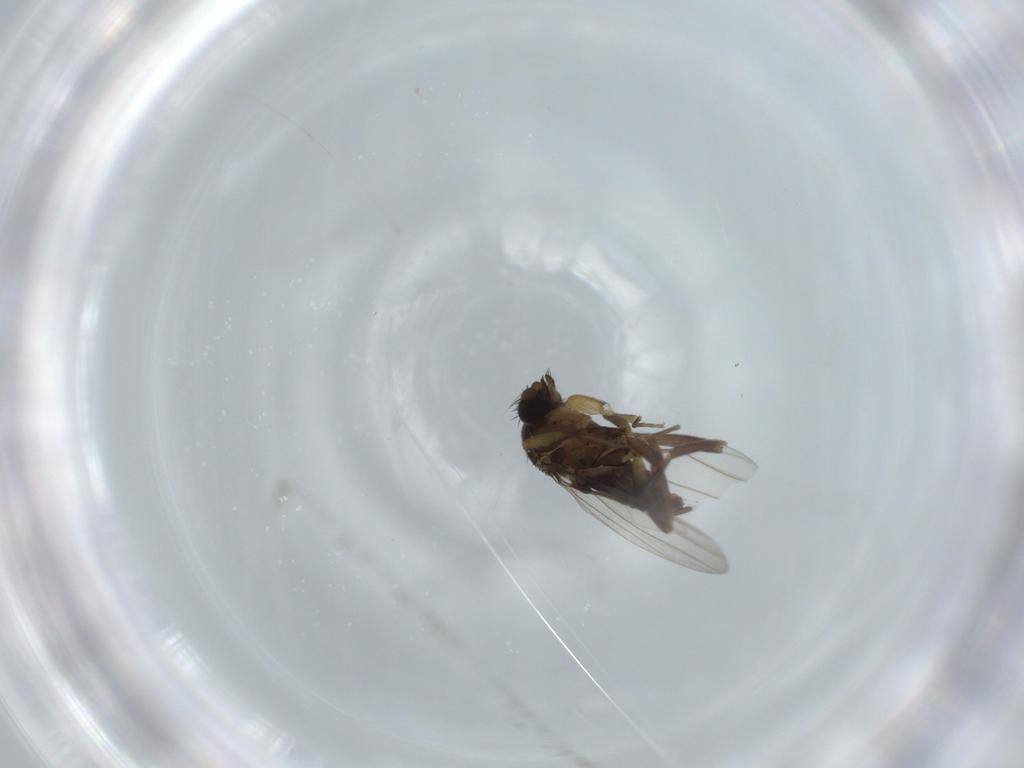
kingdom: Animalia
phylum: Arthropoda
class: Insecta
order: Diptera
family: Phoridae
